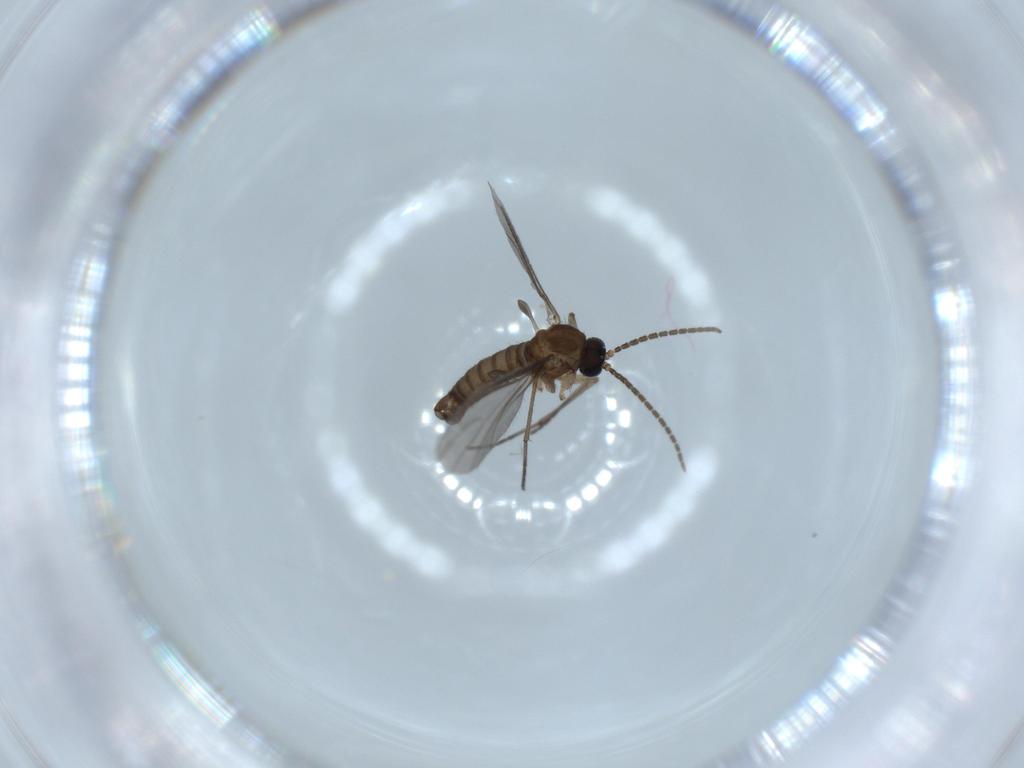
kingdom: Animalia
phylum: Arthropoda
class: Insecta
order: Diptera
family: Sciaridae
